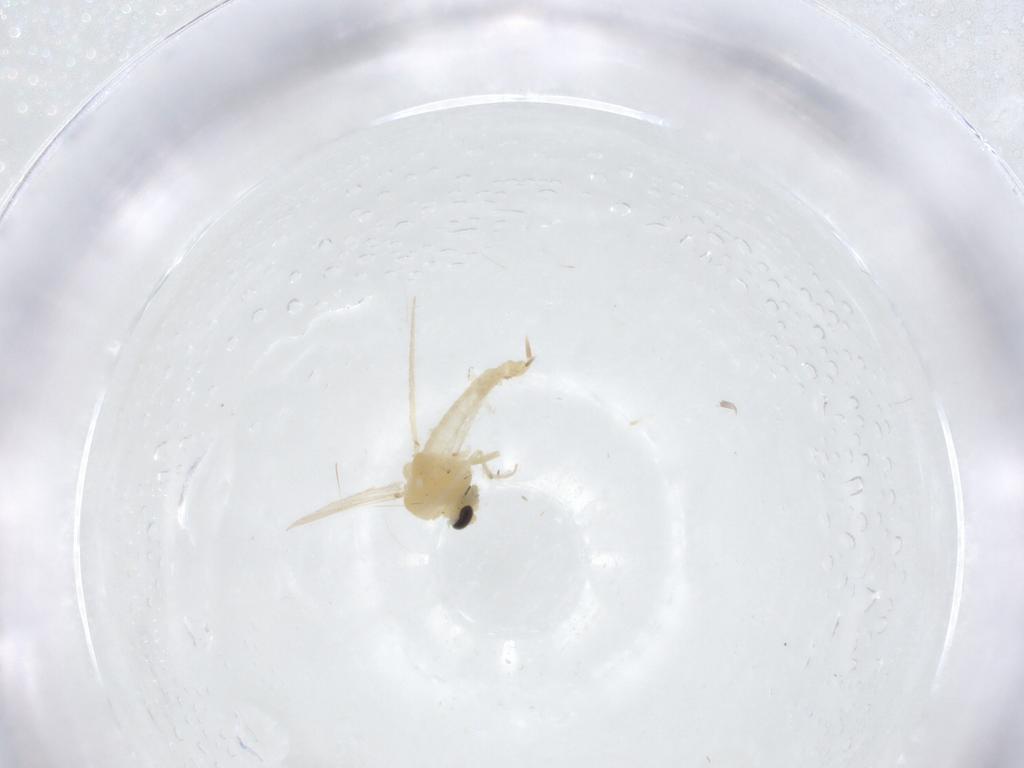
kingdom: Animalia
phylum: Arthropoda
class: Insecta
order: Diptera
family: Chironomidae
